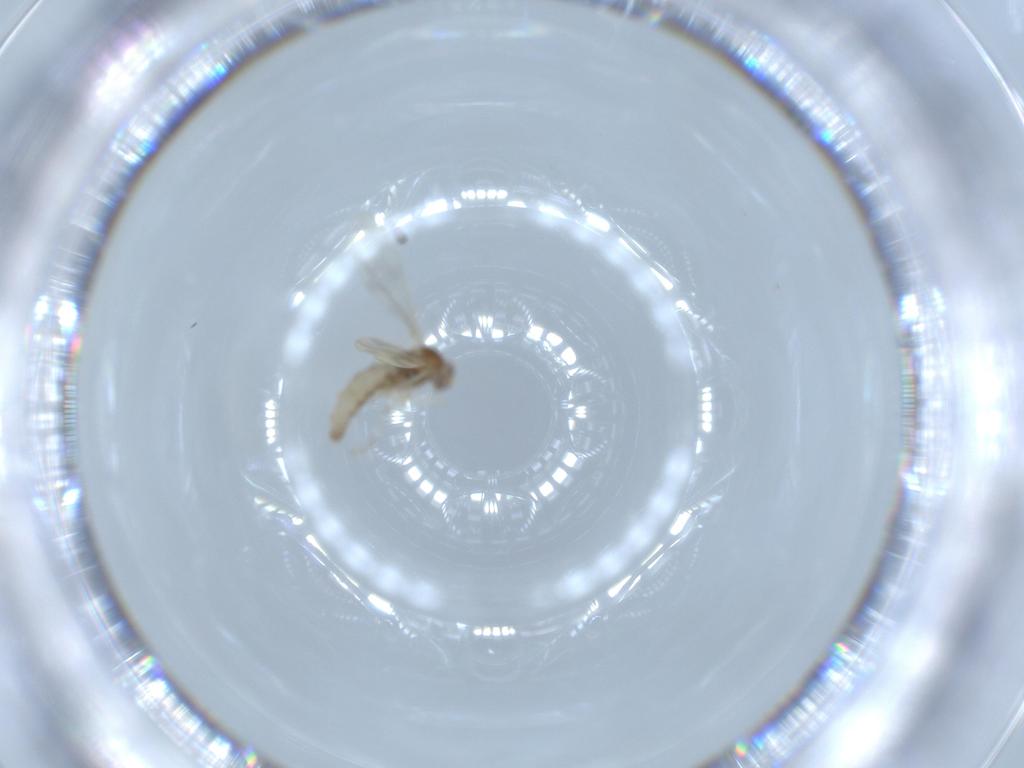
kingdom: Animalia
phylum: Arthropoda
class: Insecta
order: Diptera
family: Cecidomyiidae
